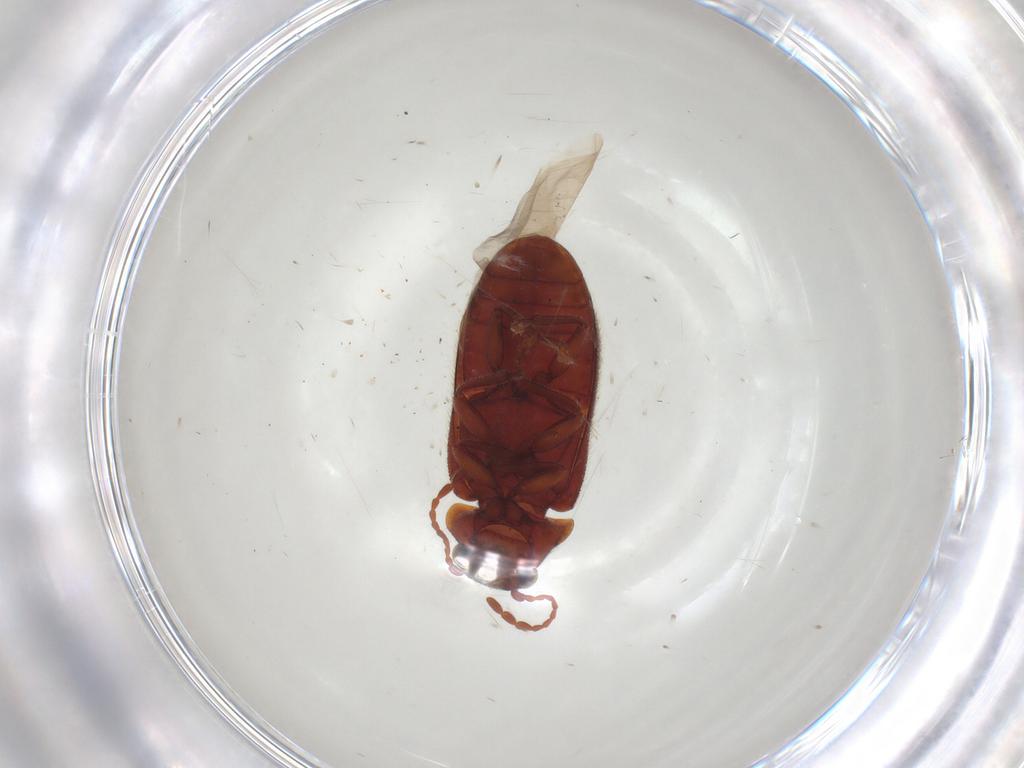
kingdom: Animalia
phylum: Arthropoda
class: Insecta
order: Coleoptera
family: Ptinidae
